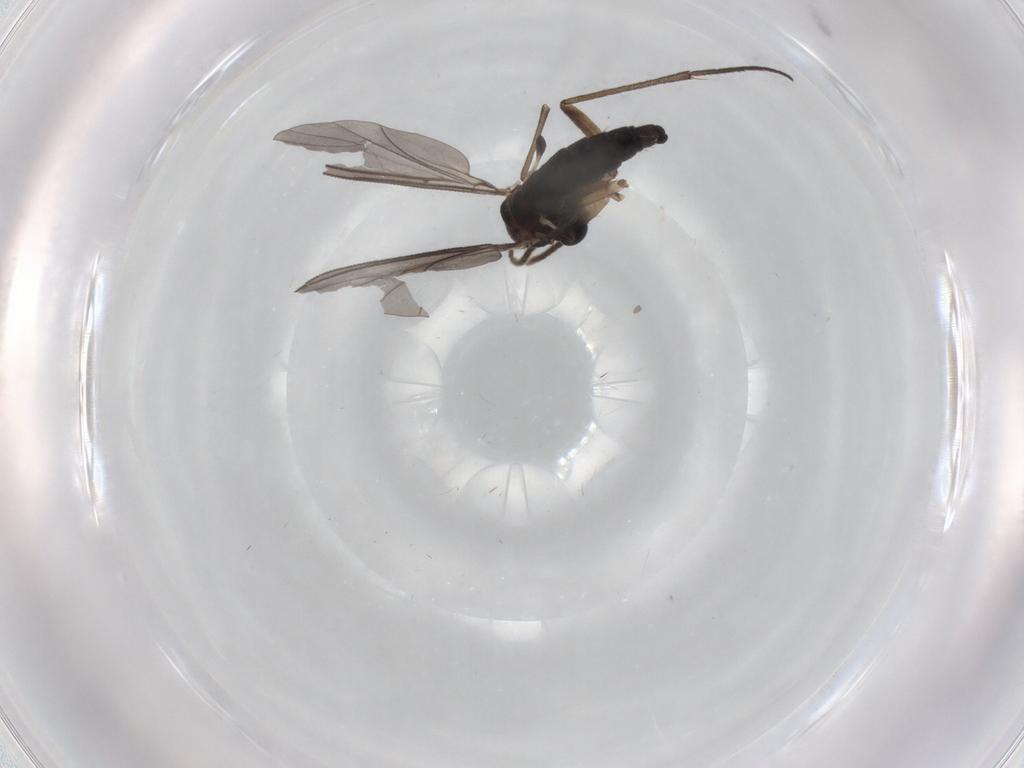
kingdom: Animalia
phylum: Arthropoda
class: Insecta
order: Diptera
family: Sciaridae
